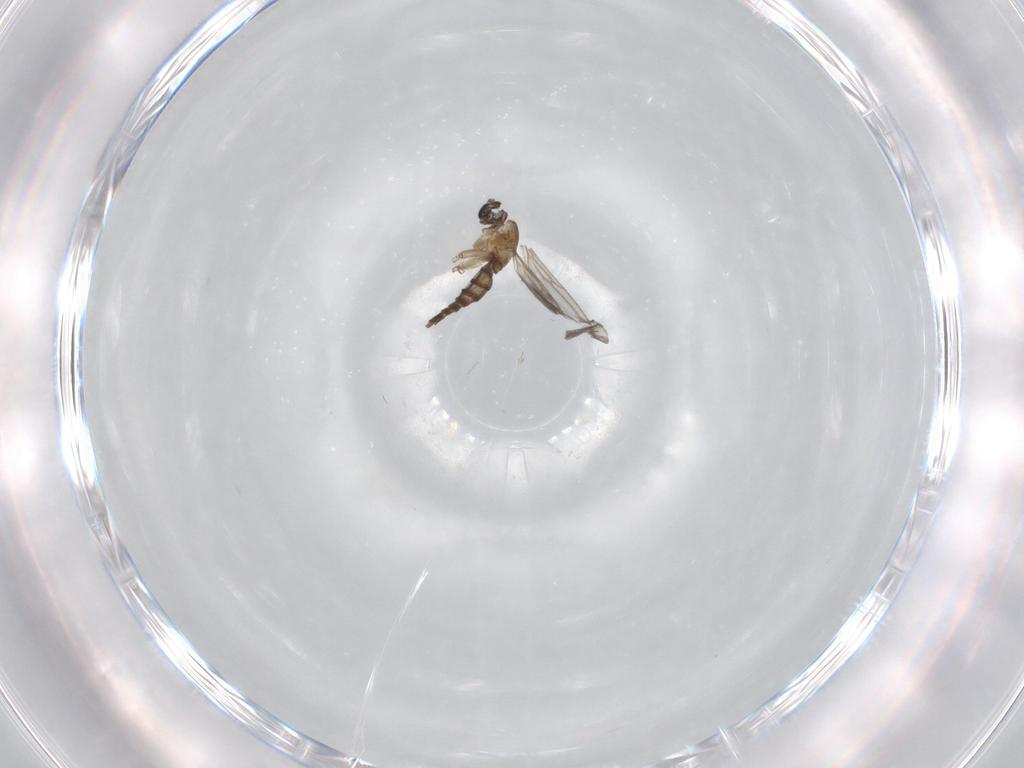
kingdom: Animalia
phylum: Arthropoda
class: Insecta
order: Diptera
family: Sciaridae
